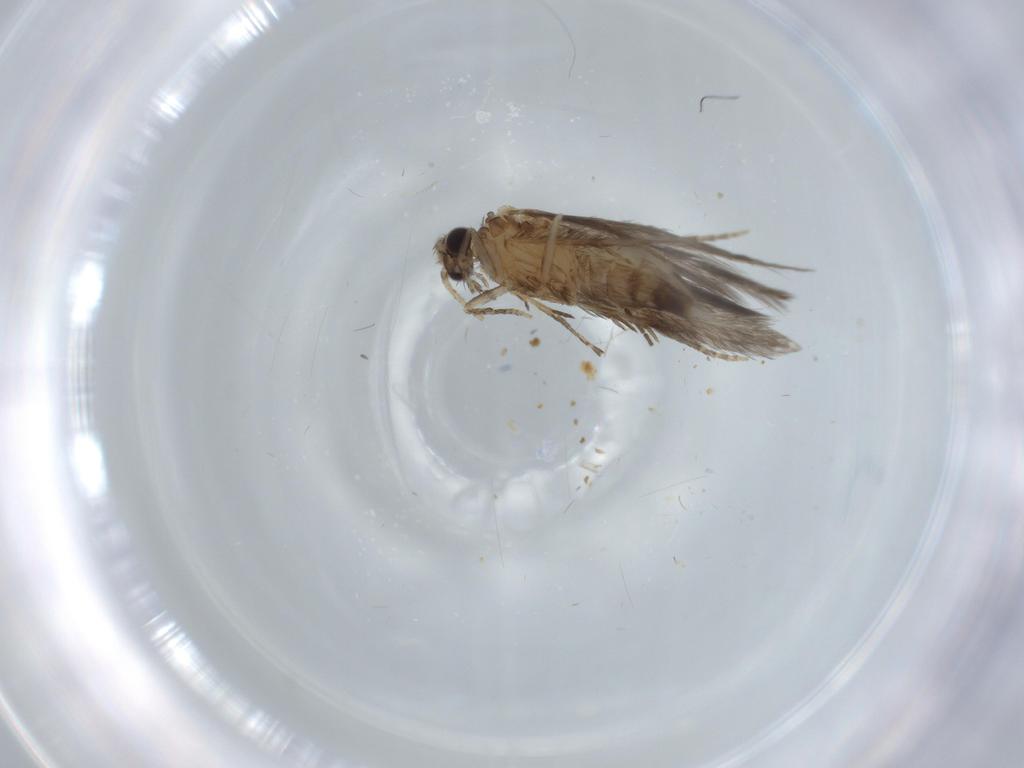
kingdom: Animalia
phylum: Arthropoda
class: Insecta
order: Trichoptera
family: Hydroptilidae
